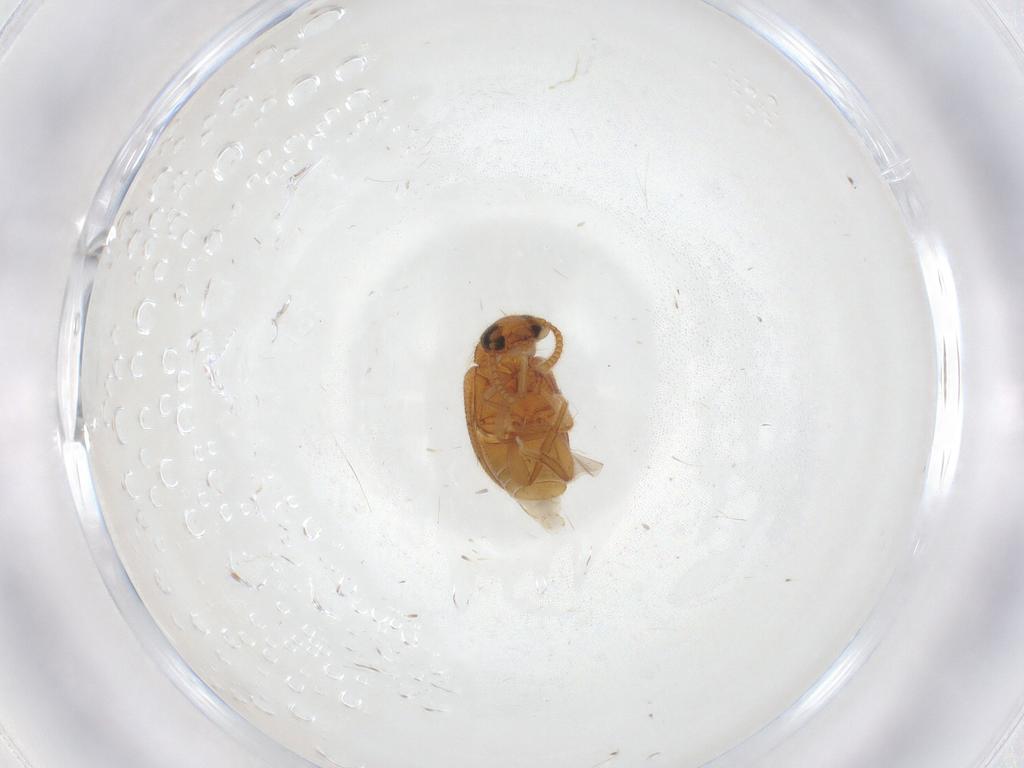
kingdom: Animalia
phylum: Arthropoda
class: Insecta
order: Coleoptera
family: Aderidae
